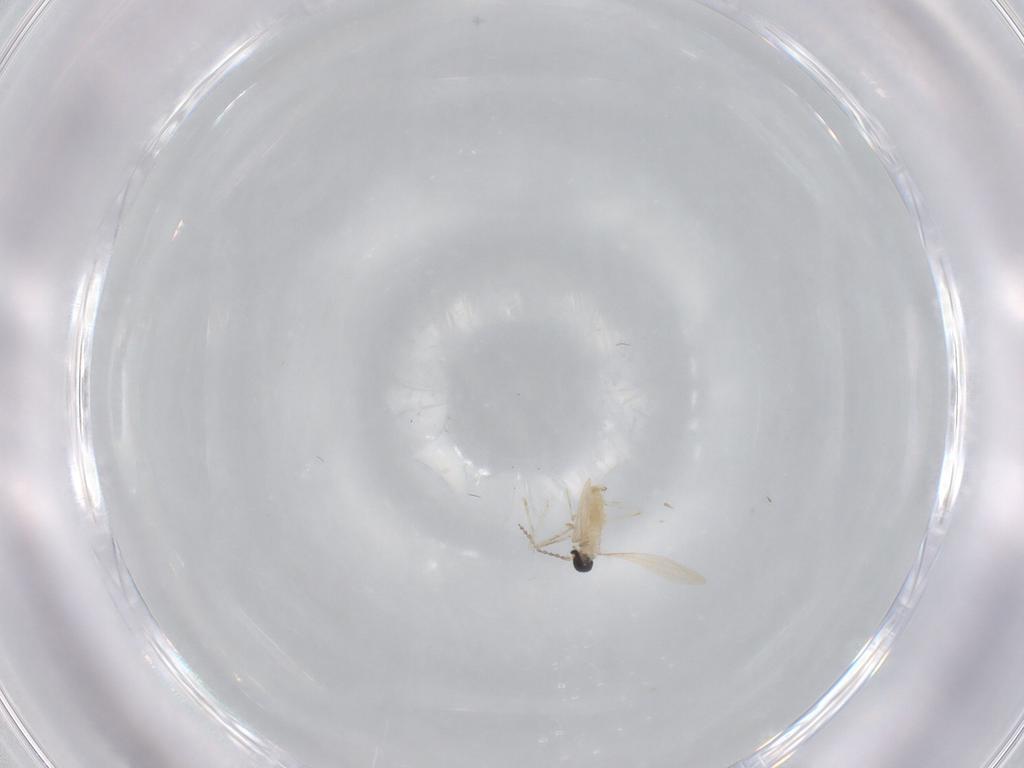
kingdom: Animalia
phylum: Arthropoda
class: Insecta
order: Diptera
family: Cecidomyiidae
